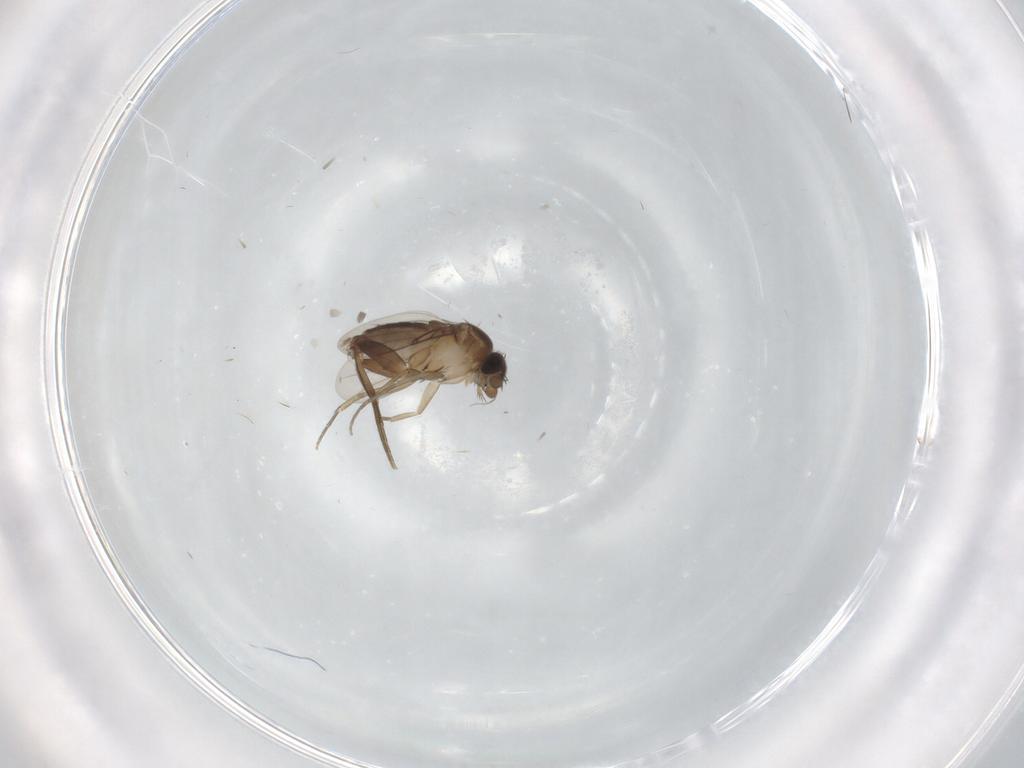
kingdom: Animalia
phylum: Arthropoda
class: Insecta
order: Diptera
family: Phoridae
